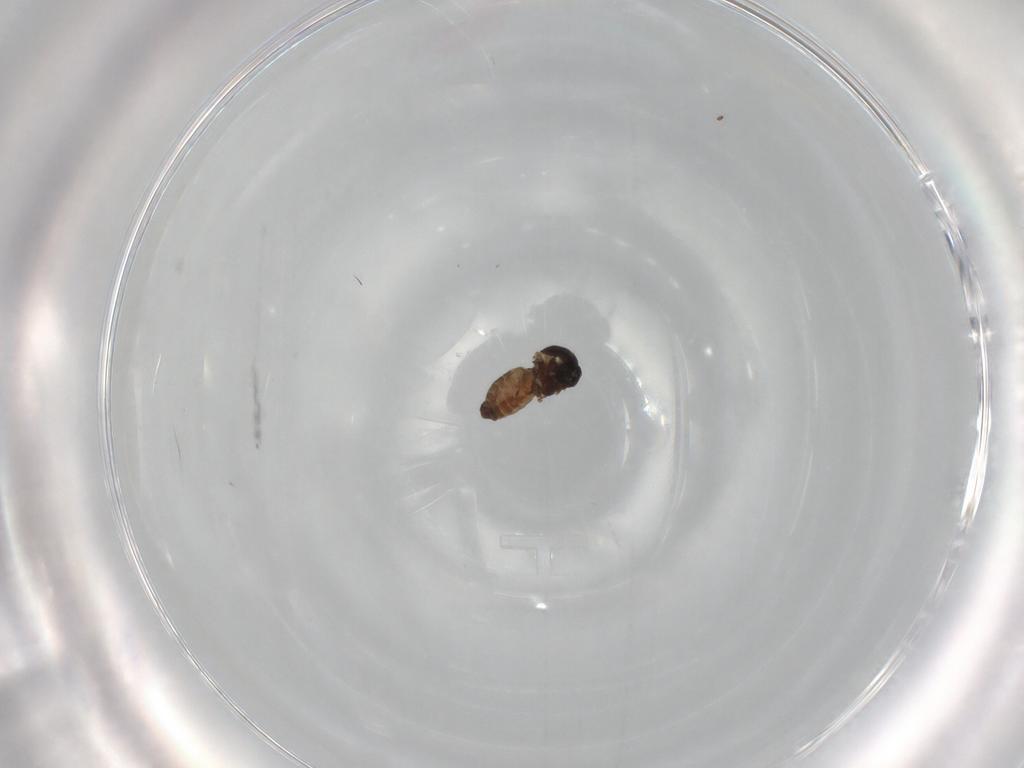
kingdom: Animalia
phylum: Arthropoda
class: Insecta
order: Diptera
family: Ceratopogonidae
